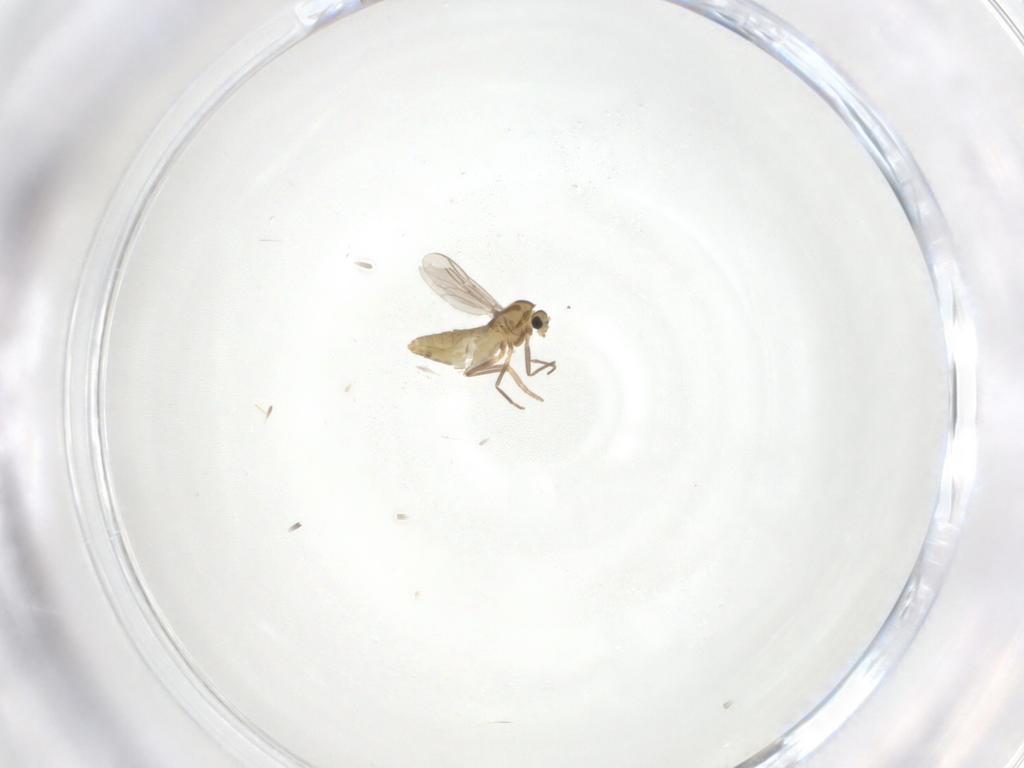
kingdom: Animalia
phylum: Arthropoda
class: Insecta
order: Diptera
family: Chironomidae
